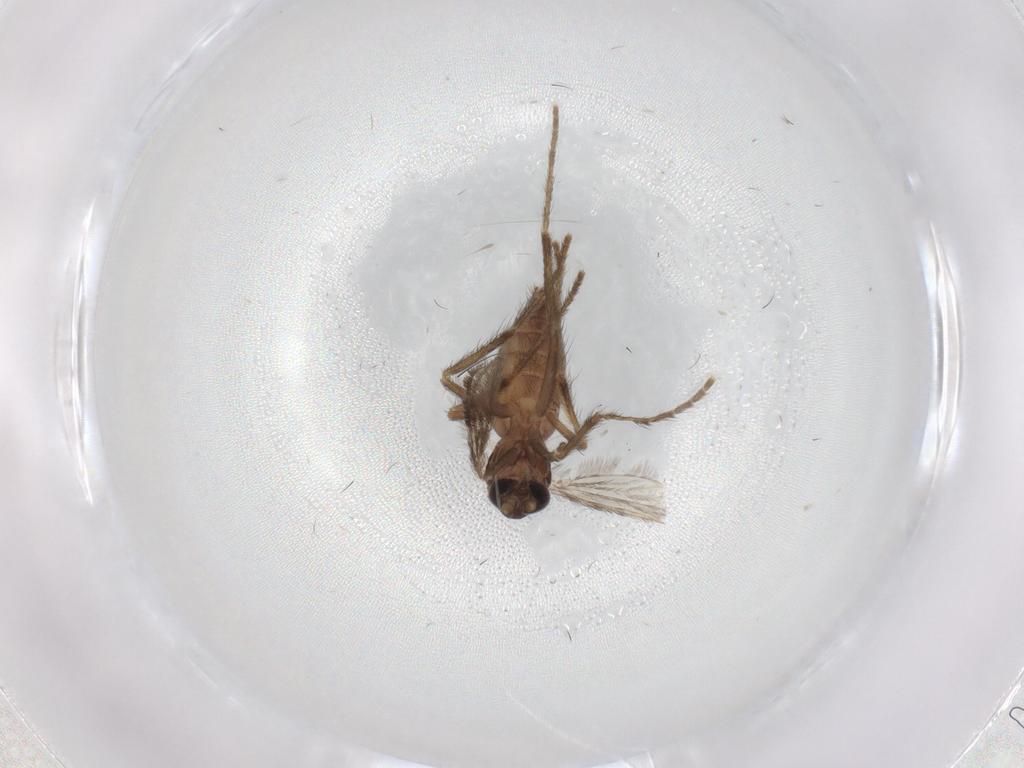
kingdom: Animalia
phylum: Arthropoda
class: Insecta
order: Diptera
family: Corethrellidae
